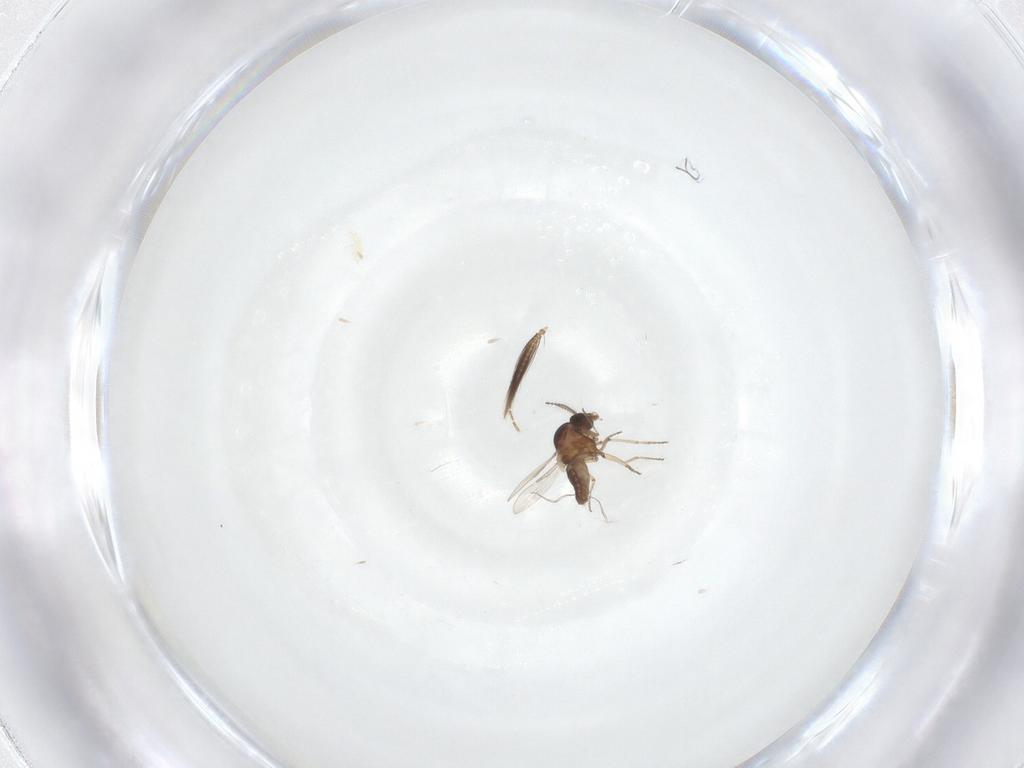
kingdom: Animalia
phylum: Arthropoda
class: Insecta
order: Diptera
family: Ceratopogonidae
